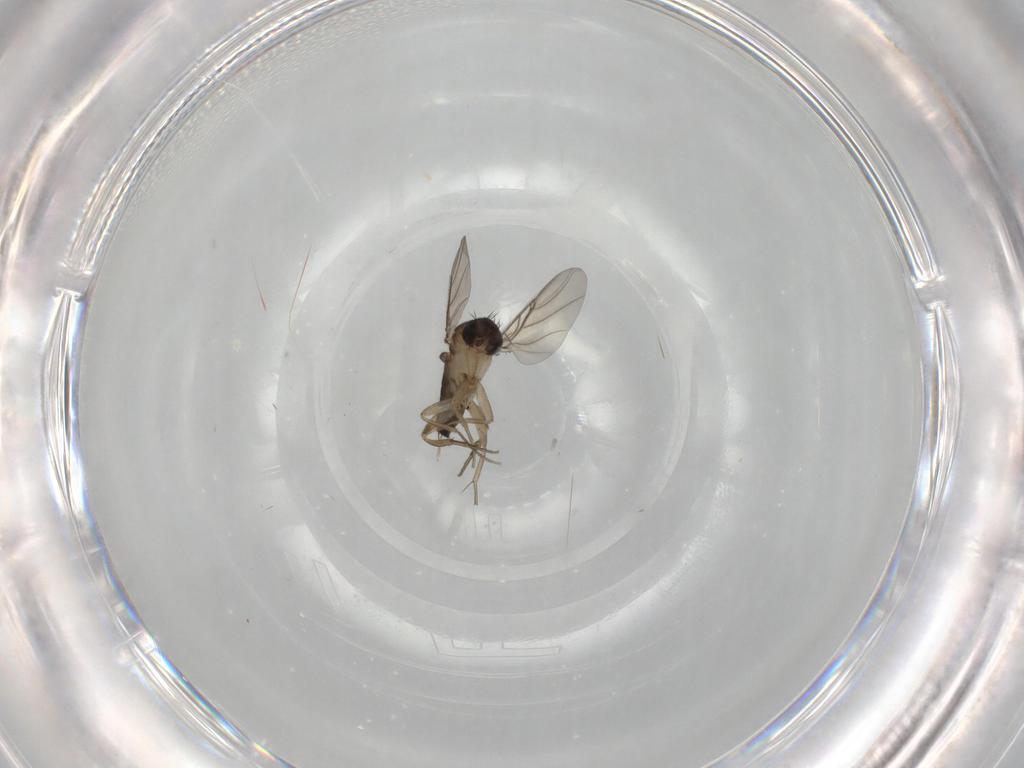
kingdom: Animalia
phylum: Arthropoda
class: Insecta
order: Diptera
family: Phoridae
